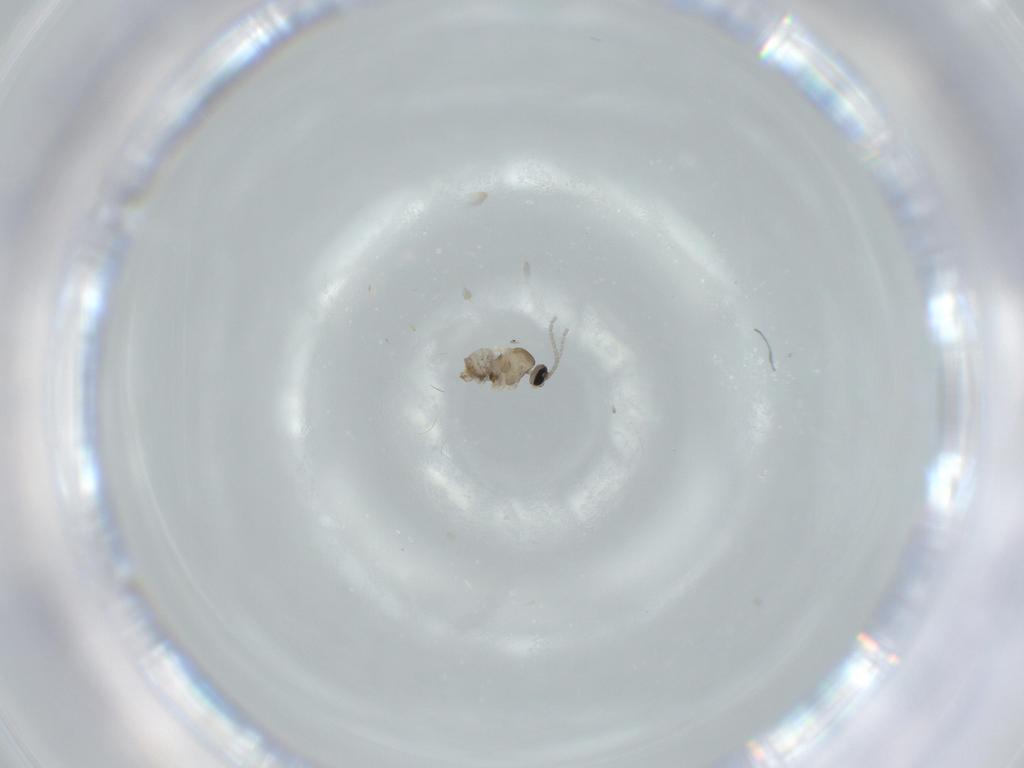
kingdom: Animalia
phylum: Arthropoda
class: Insecta
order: Diptera
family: Cecidomyiidae
